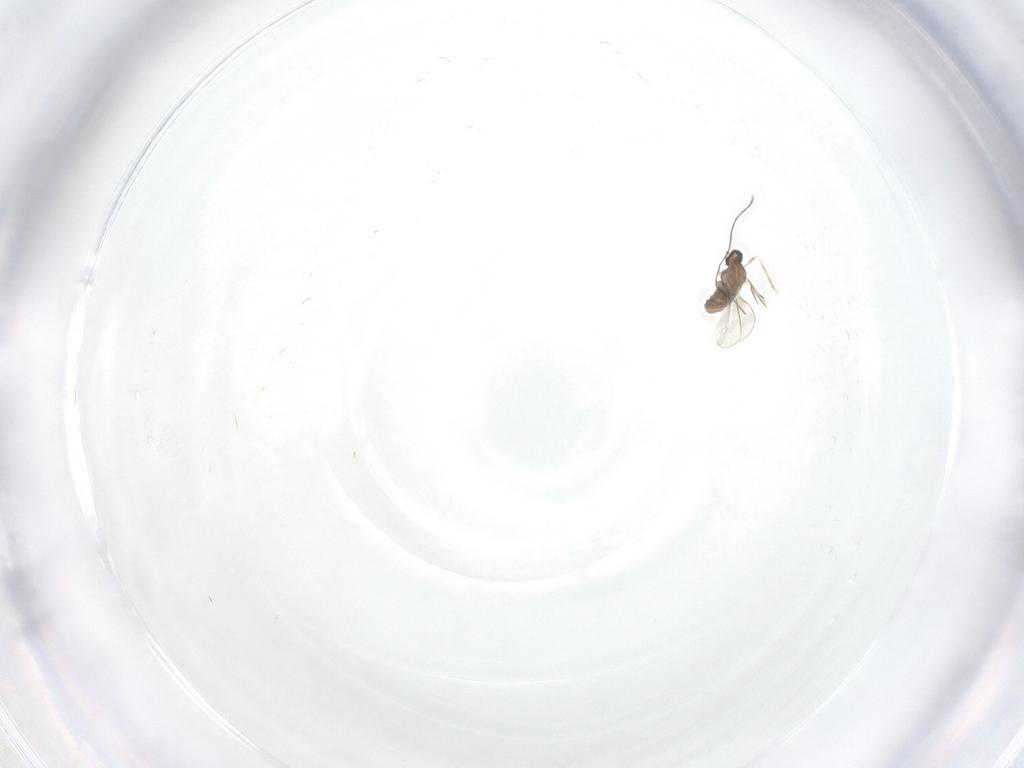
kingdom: Animalia
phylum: Arthropoda
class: Insecta
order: Diptera
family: Cecidomyiidae
